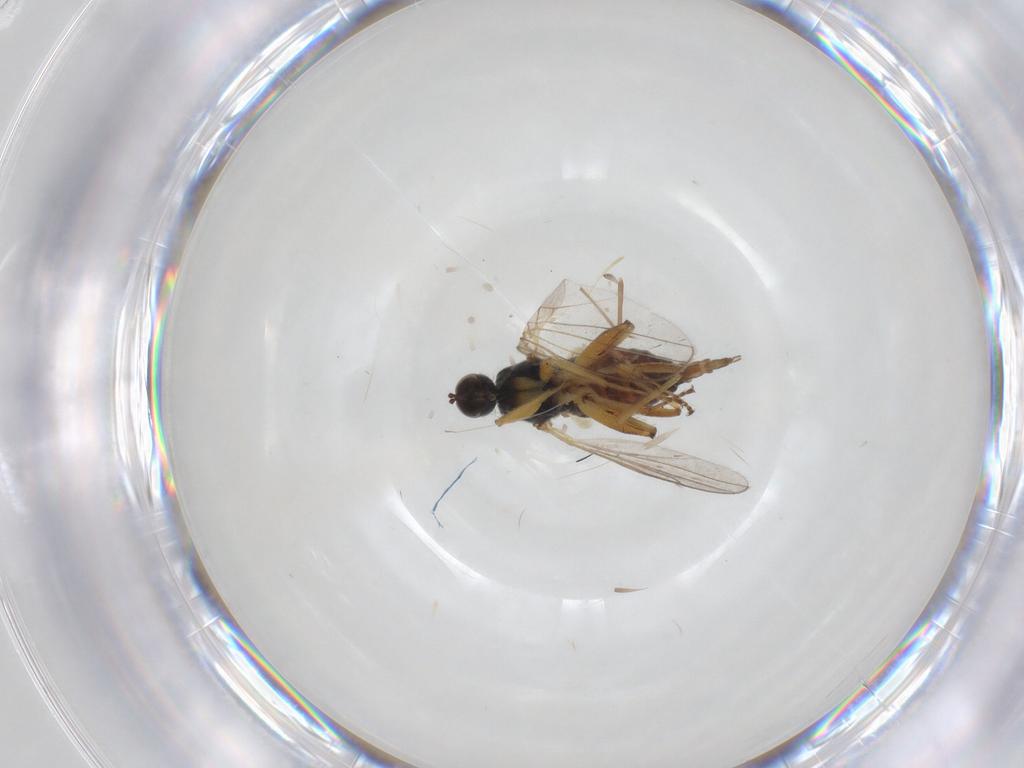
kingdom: Animalia
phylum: Arthropoda
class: Insecta
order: Diptera
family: Hybotidae
